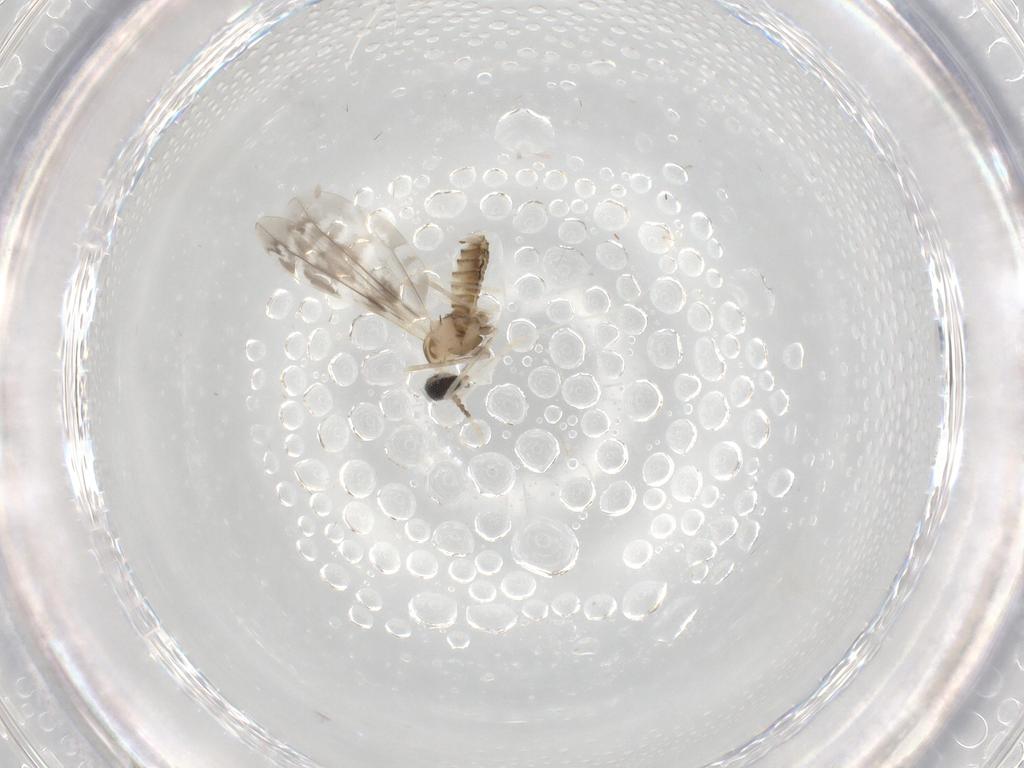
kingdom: Animalia
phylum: Arthropoda
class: Insecta
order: Diptera
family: Cecidomyiidae
